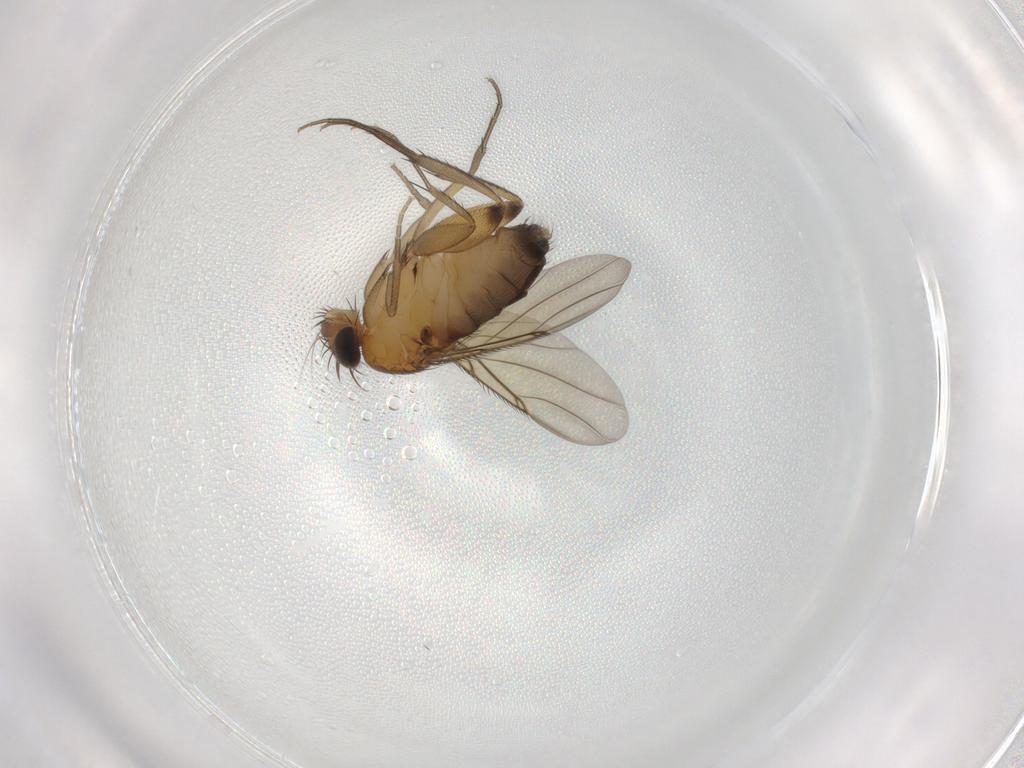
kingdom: Animalia
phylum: Arthropoda
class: Insecta
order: Diptera
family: Phoridae
